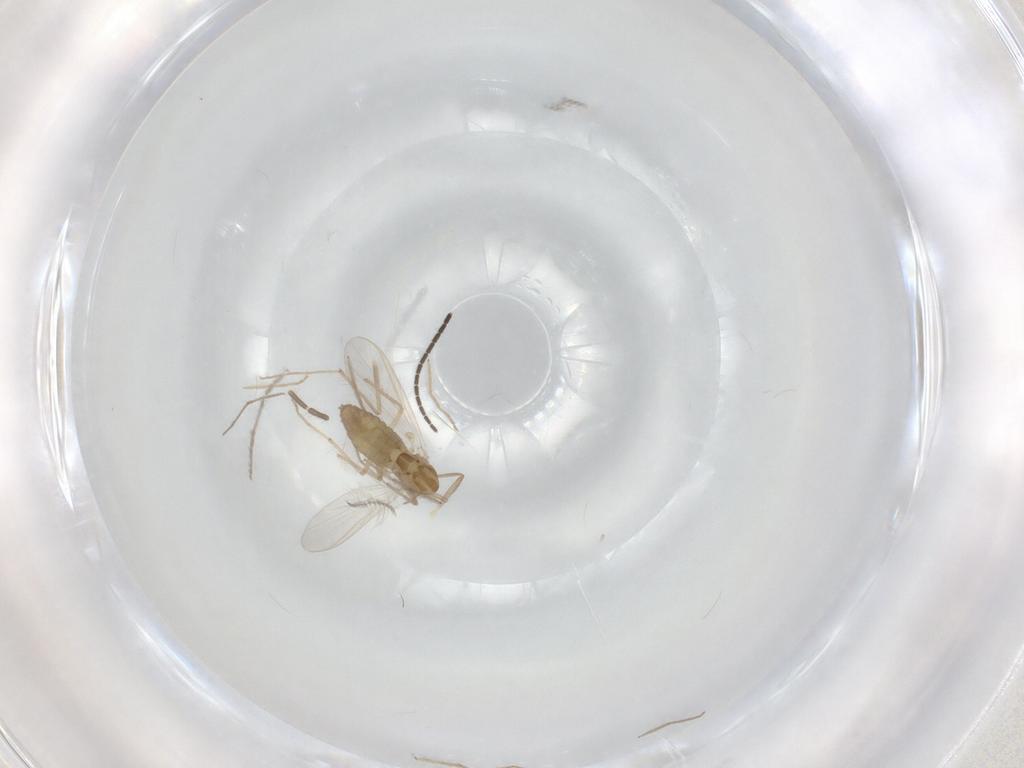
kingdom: Animalia
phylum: Arthropoda
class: Insecta
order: Diptera
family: Chironomidae
